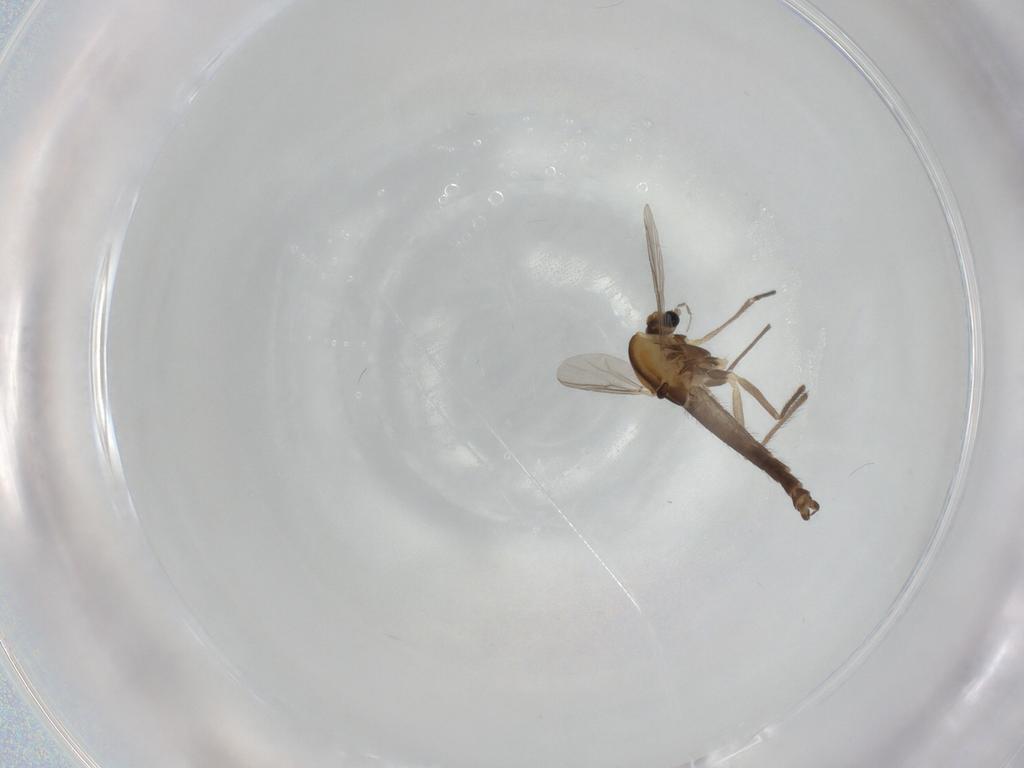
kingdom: Animalia
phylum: Arthropoda
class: Insecta
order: Diptera
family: Chironomidae
